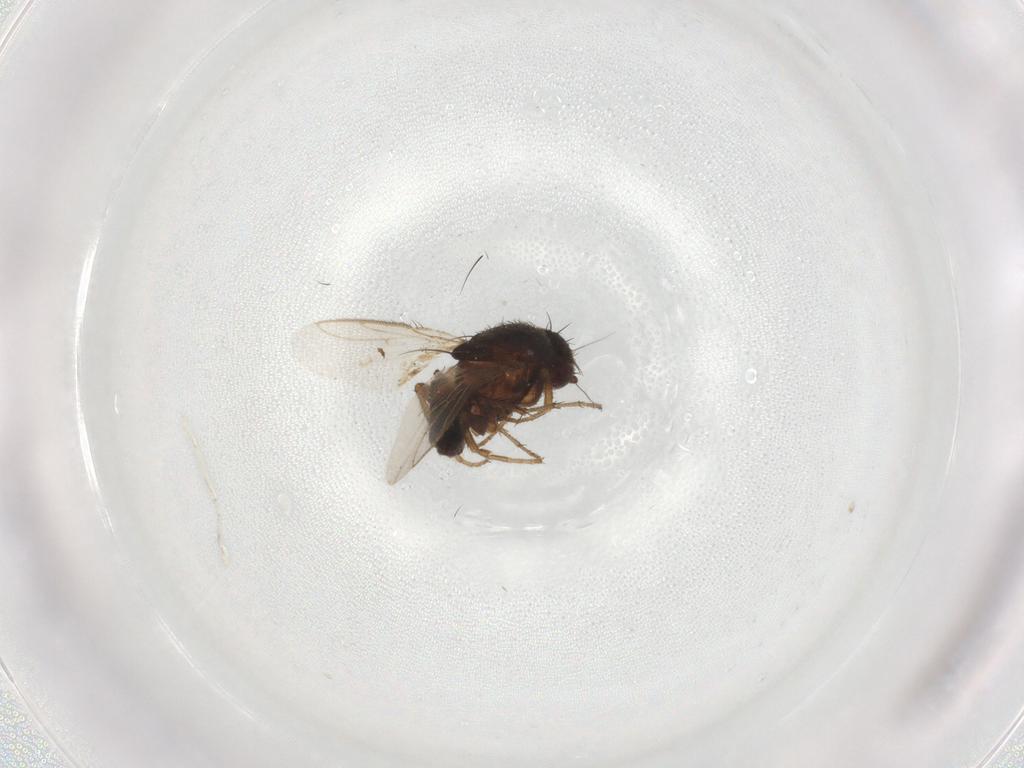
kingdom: Animalia
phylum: Arthropoda
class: Insecta
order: Diptera
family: Sphaeroceridae
